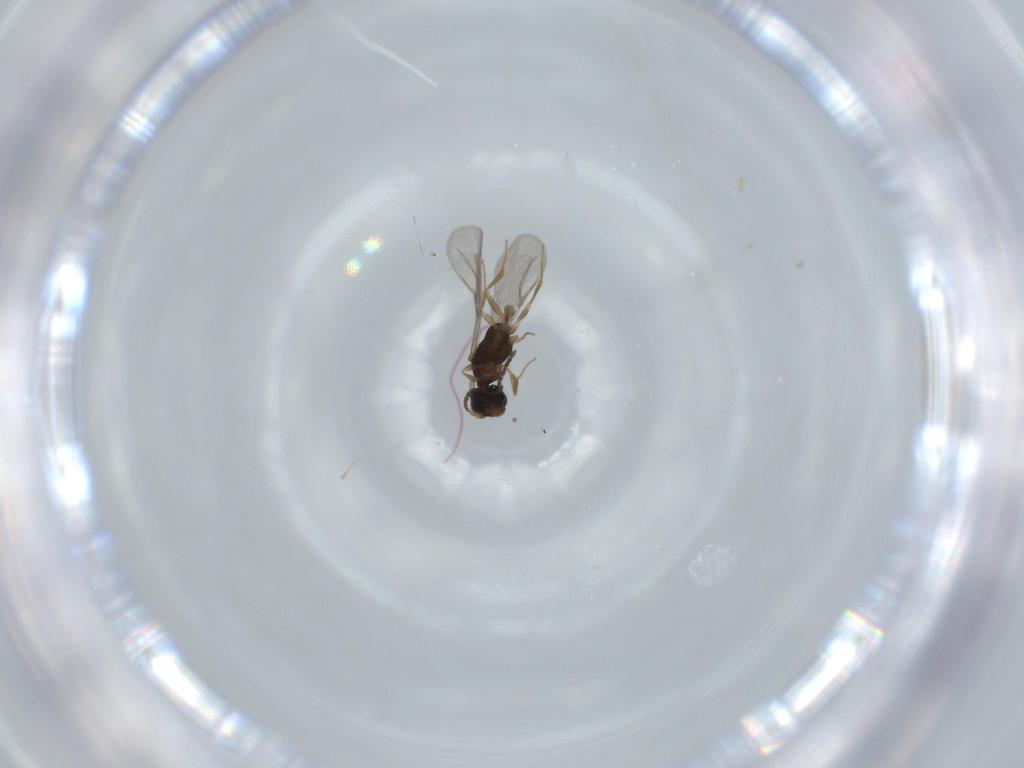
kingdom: Animalia
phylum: Arthropoda
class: Insecta
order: Hymenoptera
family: Bethylidae
